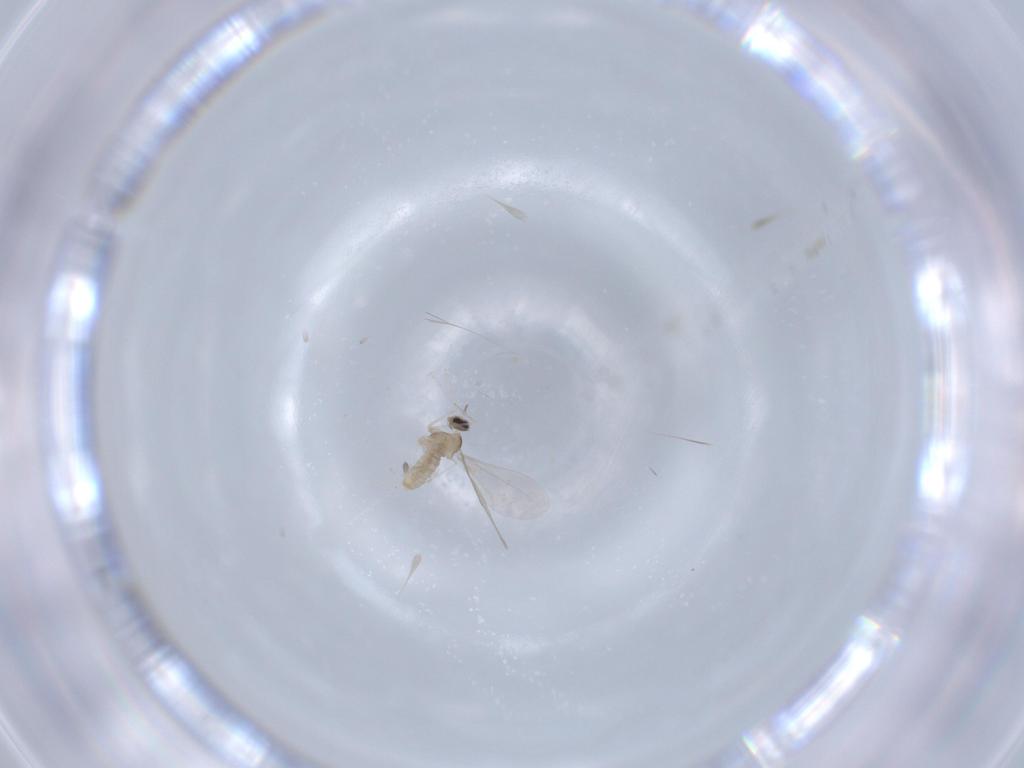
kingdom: Animalia
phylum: Arthropoda
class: Insecta
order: Diptera
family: Cecidomyiidae
